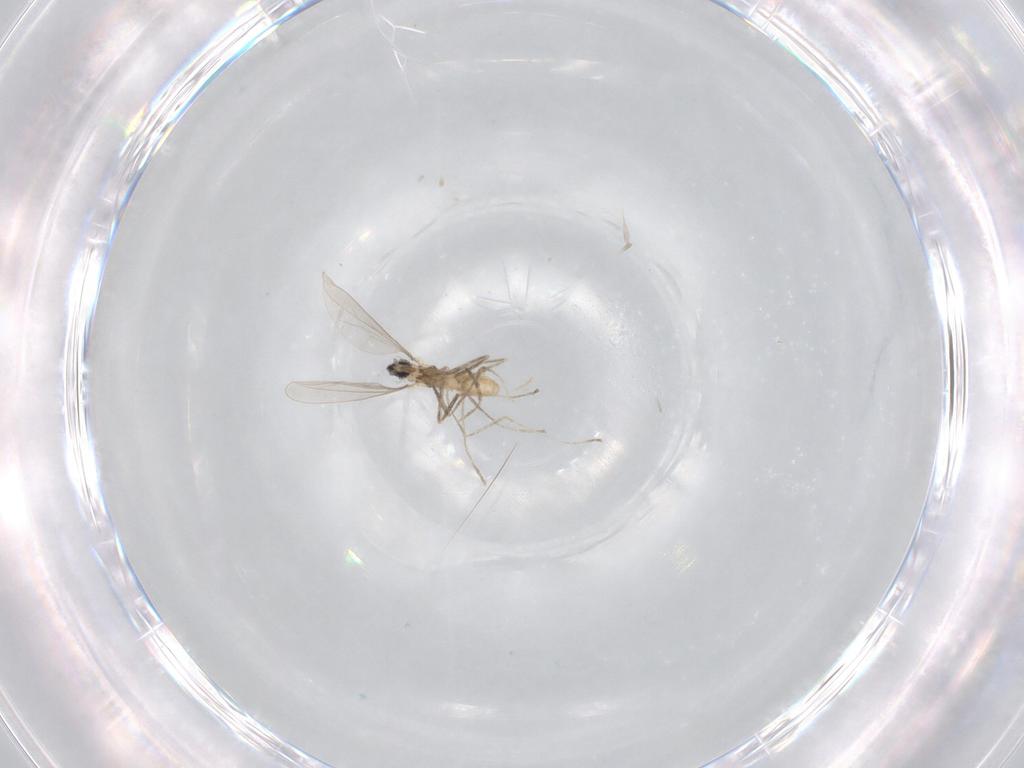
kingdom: Animalia
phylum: Arthropoda
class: Insecta
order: Diptera
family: Cecidomyiidae
